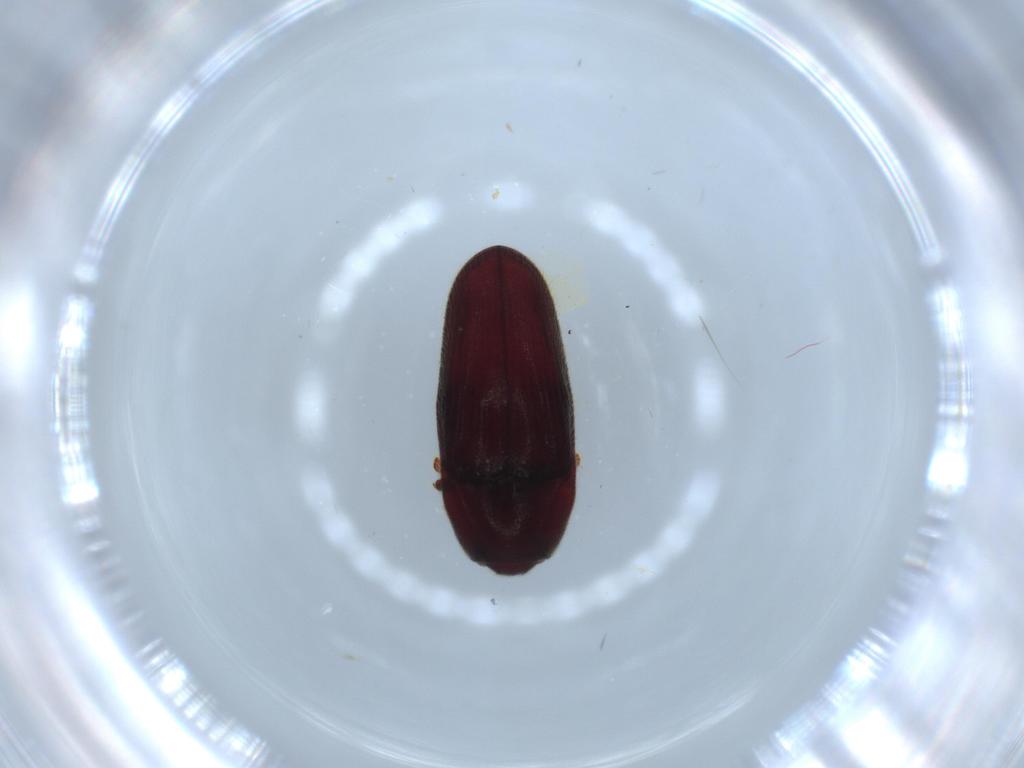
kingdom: Animalia
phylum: Arthropoda
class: Insecta
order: Coleoptera
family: Throscidae
